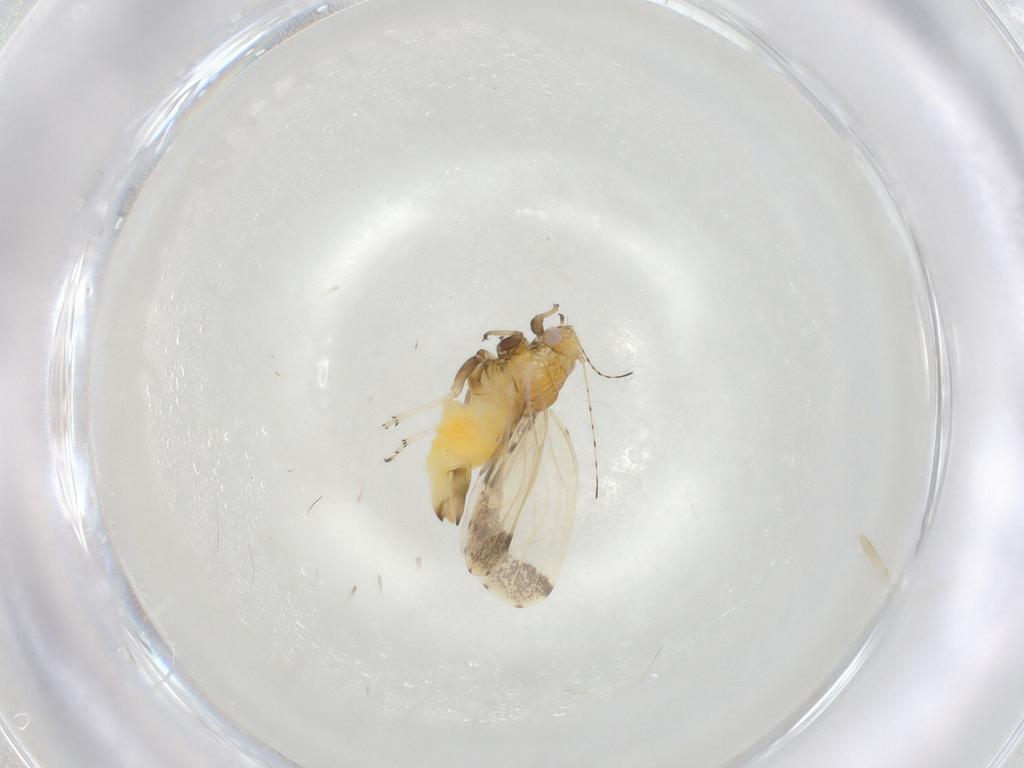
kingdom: Animalia
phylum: Arthropoda
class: Insecta
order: Hemiptera
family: Psyllidae
